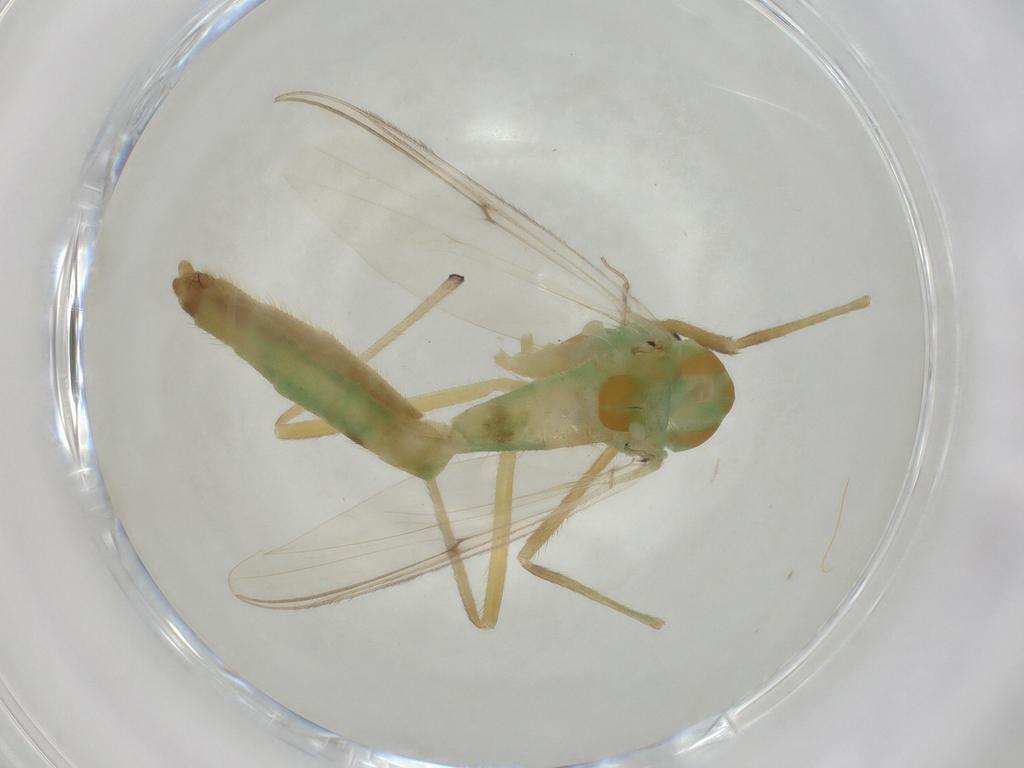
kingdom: Animalia
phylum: Arthropoda
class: Insecta
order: Diptera
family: Chironomidae
